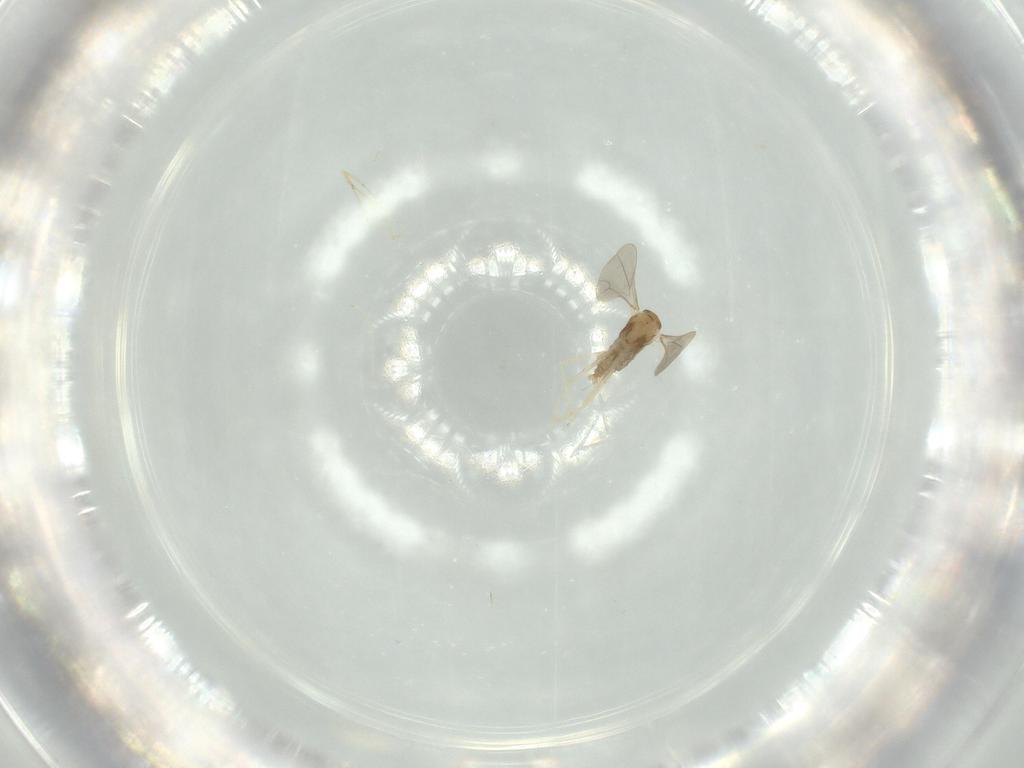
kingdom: Animalia
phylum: Arthropoda
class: Insecta
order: Diptera
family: Cecidomyiidae
